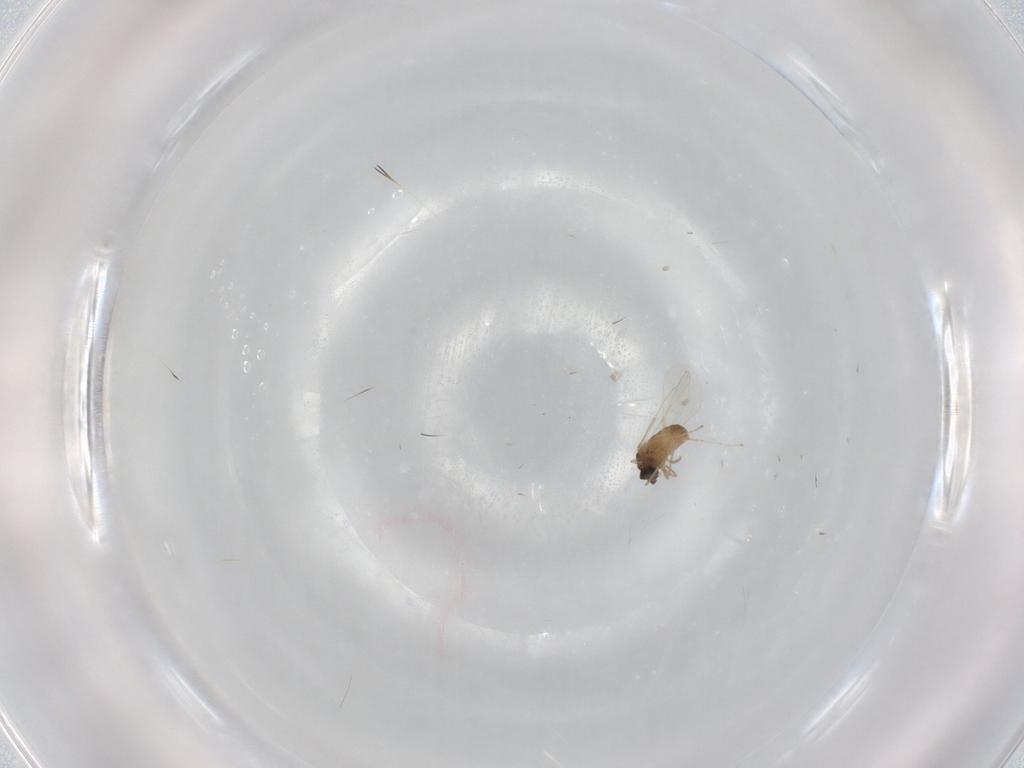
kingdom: Animalia
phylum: Arthropoda
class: Insecta
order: Diptera
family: Cecidomyiidae
